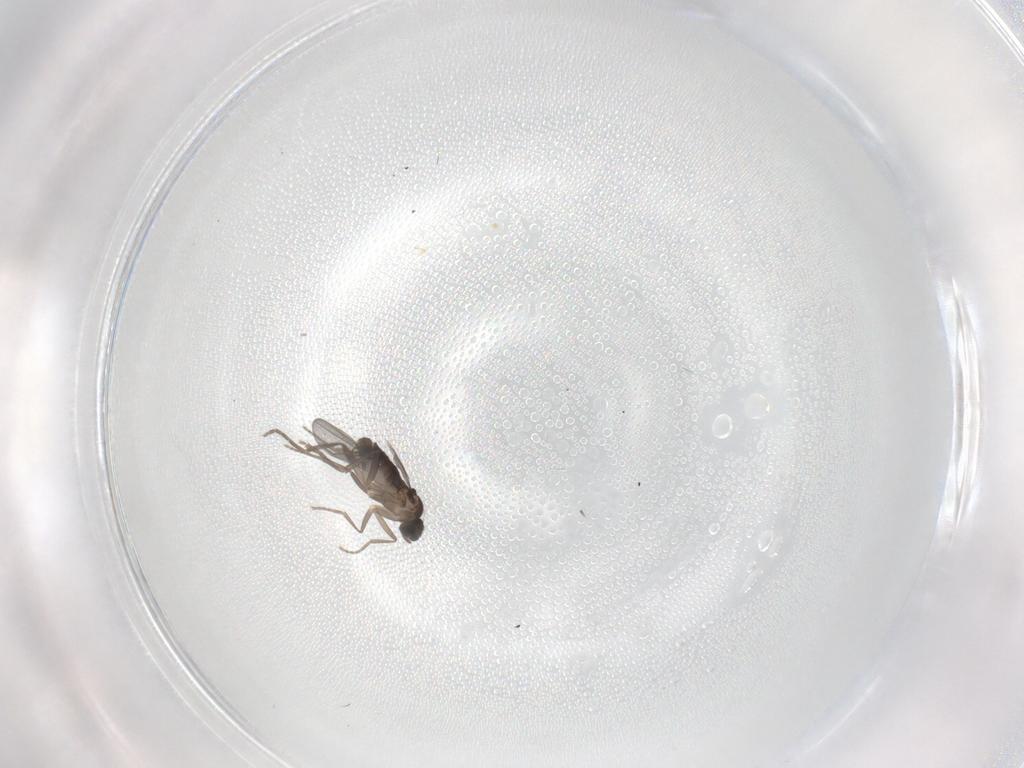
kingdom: Animalia
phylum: Arthropoda
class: Insecta
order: Diptera
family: Phoridae
